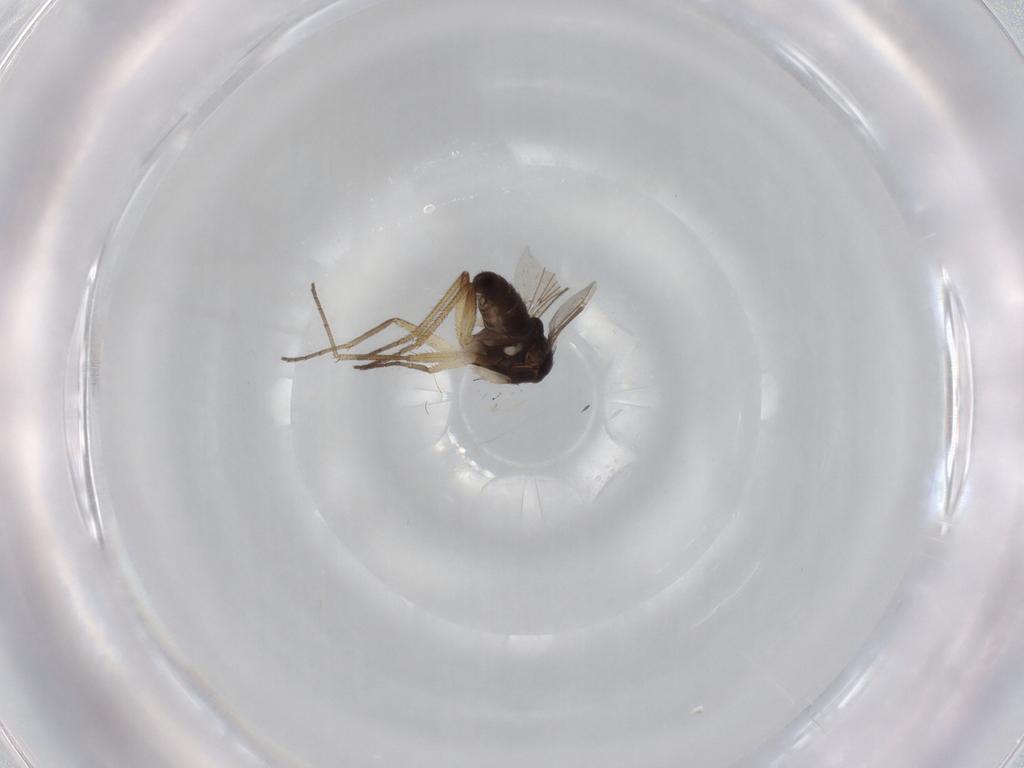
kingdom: Animalia
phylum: Arthropoda
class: Insecta
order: Diptera
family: Dolichopodidae
